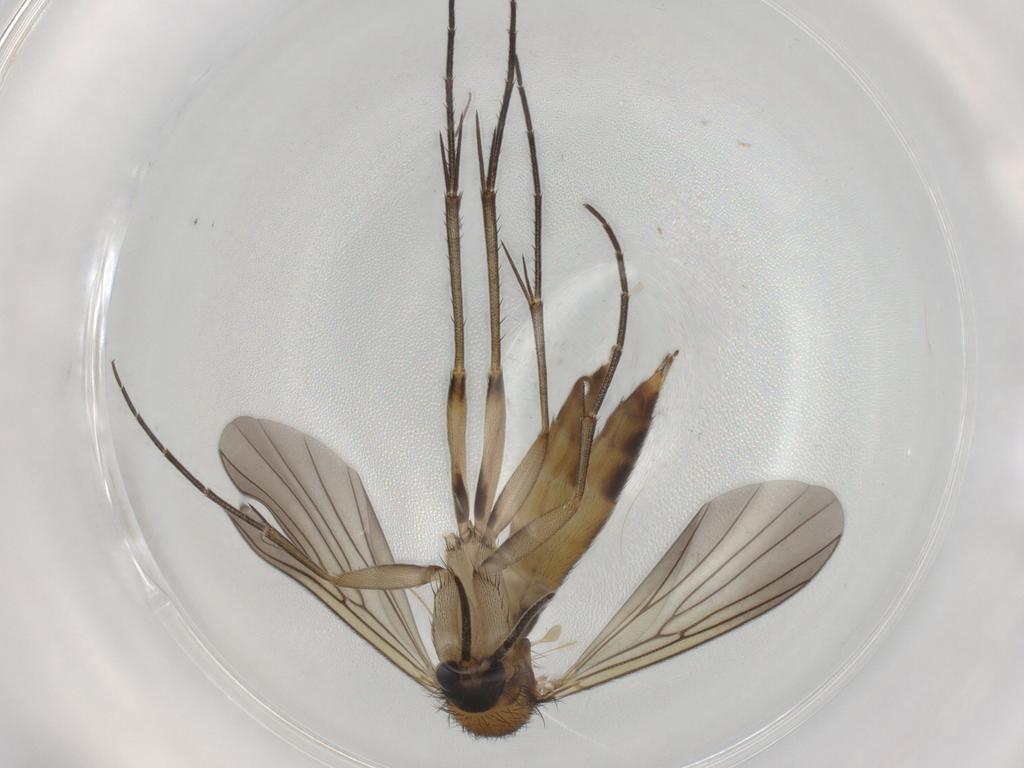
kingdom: Animalia
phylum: Arthropoda
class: Insecta
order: Diptera
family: Mycetophilidae
